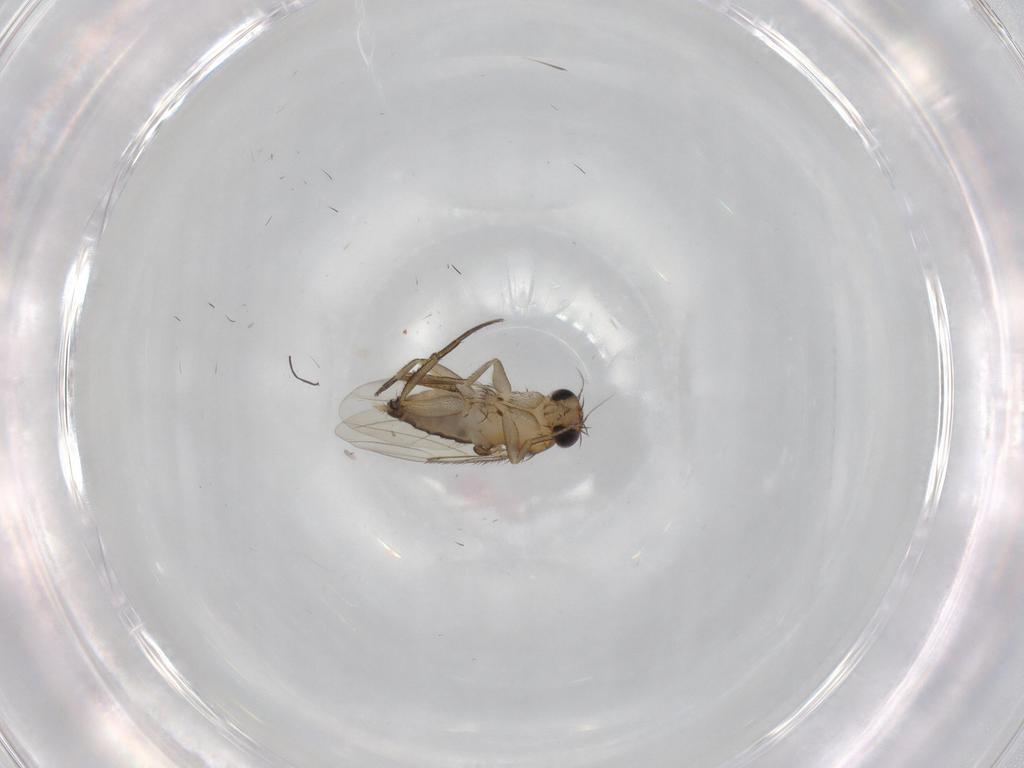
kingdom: Animalia
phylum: Arthropoda
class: Insecta
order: Diptera
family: Phoridae
